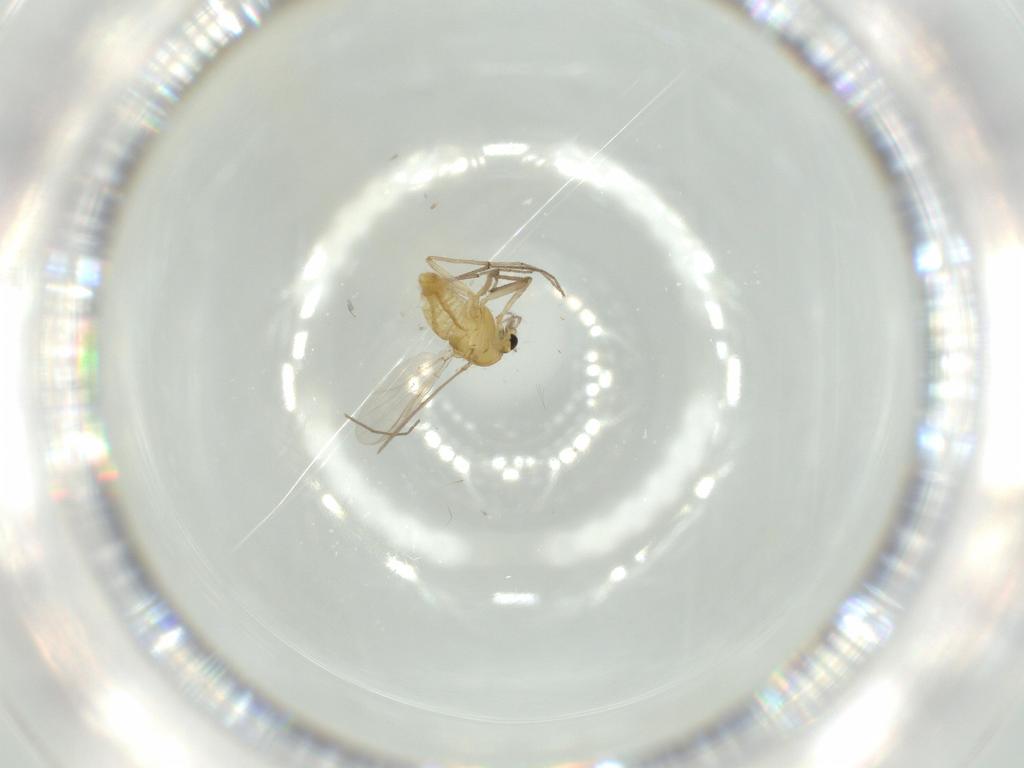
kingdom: Animalia
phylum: Arthropoda
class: Insecta
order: Diptera
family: Chironomidae
